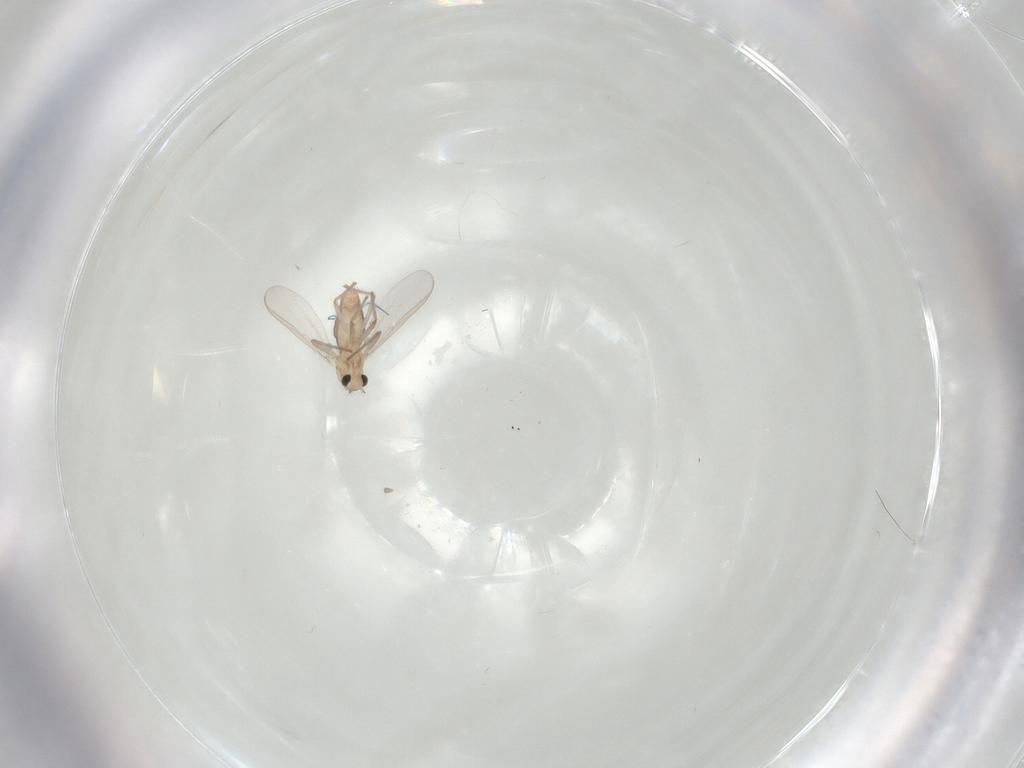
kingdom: Animalia
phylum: Arthropoda
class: Insecta
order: Diptera
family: Chironomidae
